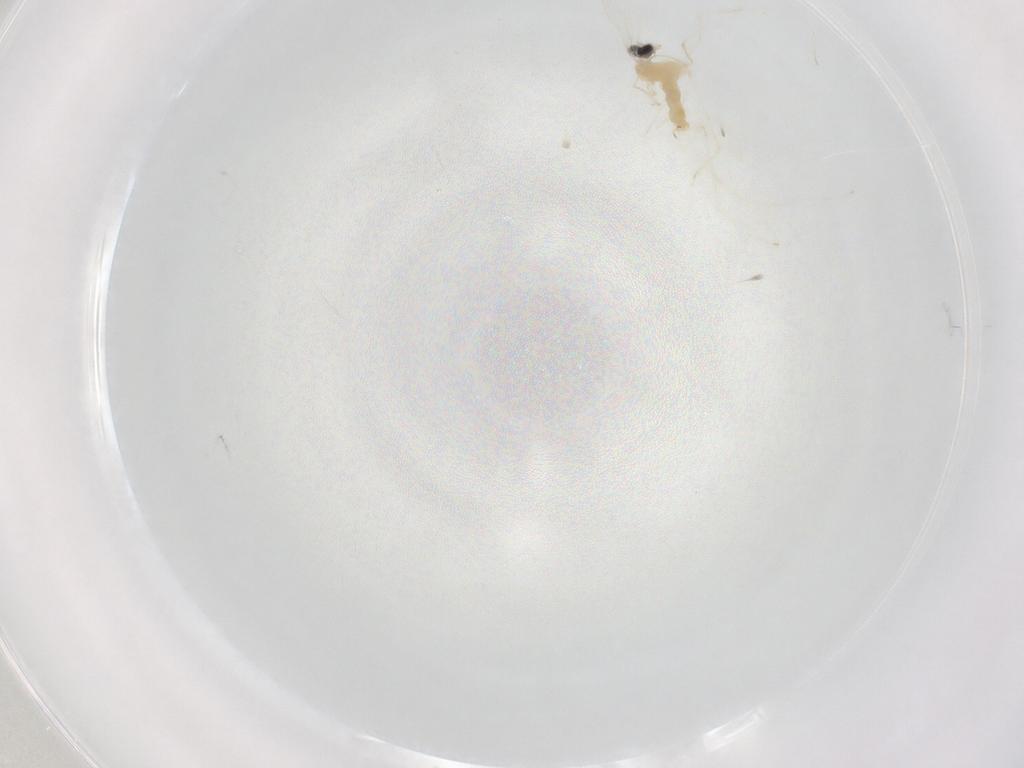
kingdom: Animalia
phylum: Arthropoda
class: Insecta
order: Diptera
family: Cecidomyiidae
